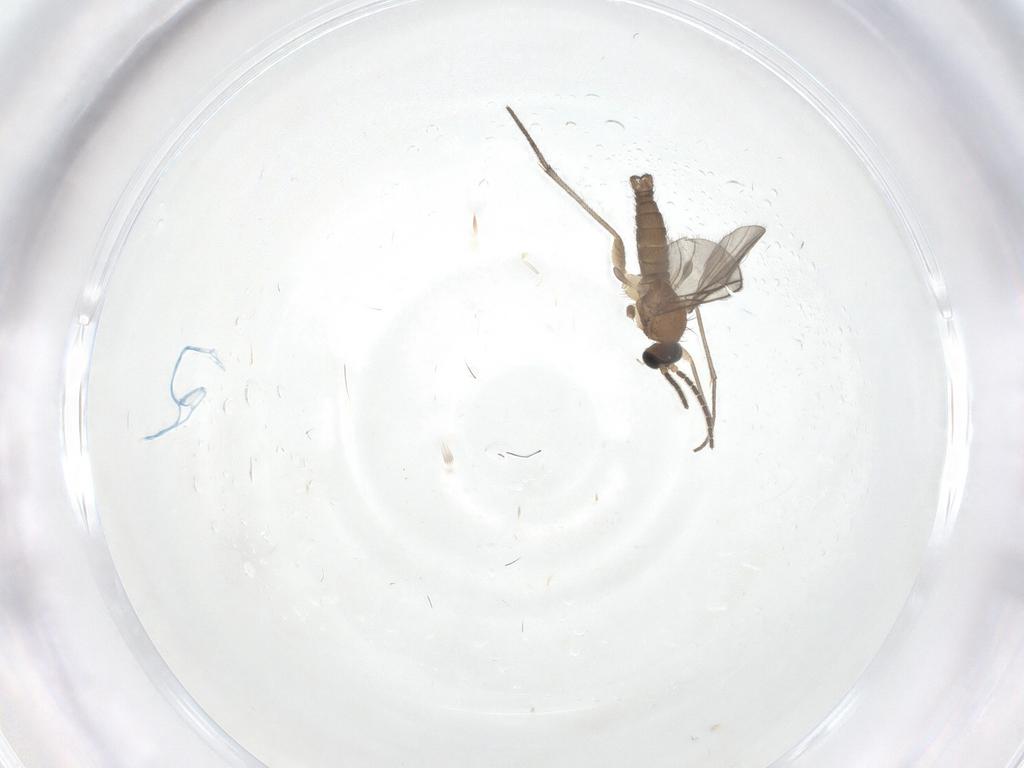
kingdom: Animalia
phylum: Arthropoda
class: Insecta
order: Diptera
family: Sciaridae
